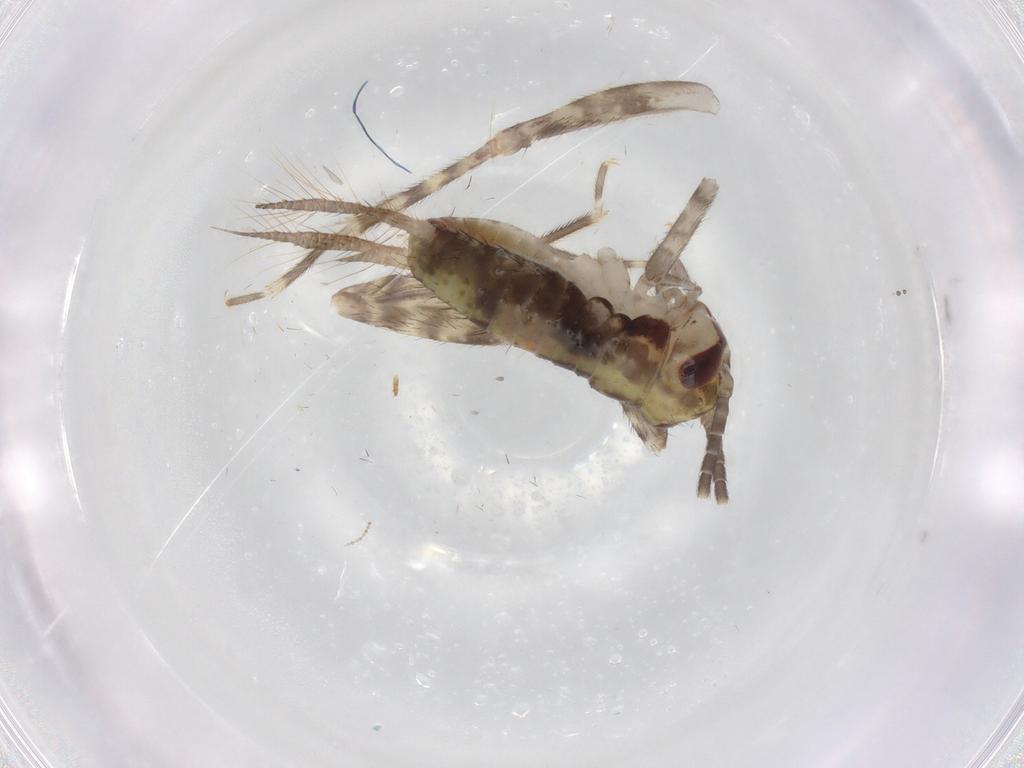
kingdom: Animalia
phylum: Arthropoda
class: Insecta
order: Orthoptera
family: Gryllidae
